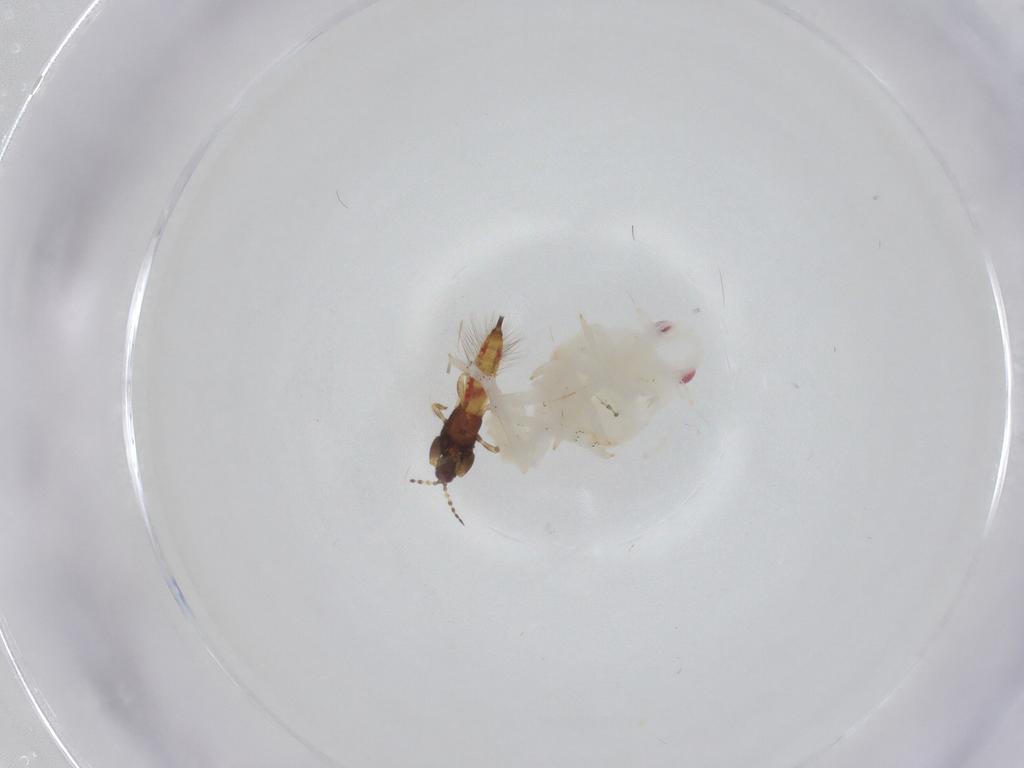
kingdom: Animalia
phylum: Arthropoda
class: Insecta
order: Thysanoptera
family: Phlaeothripidae
